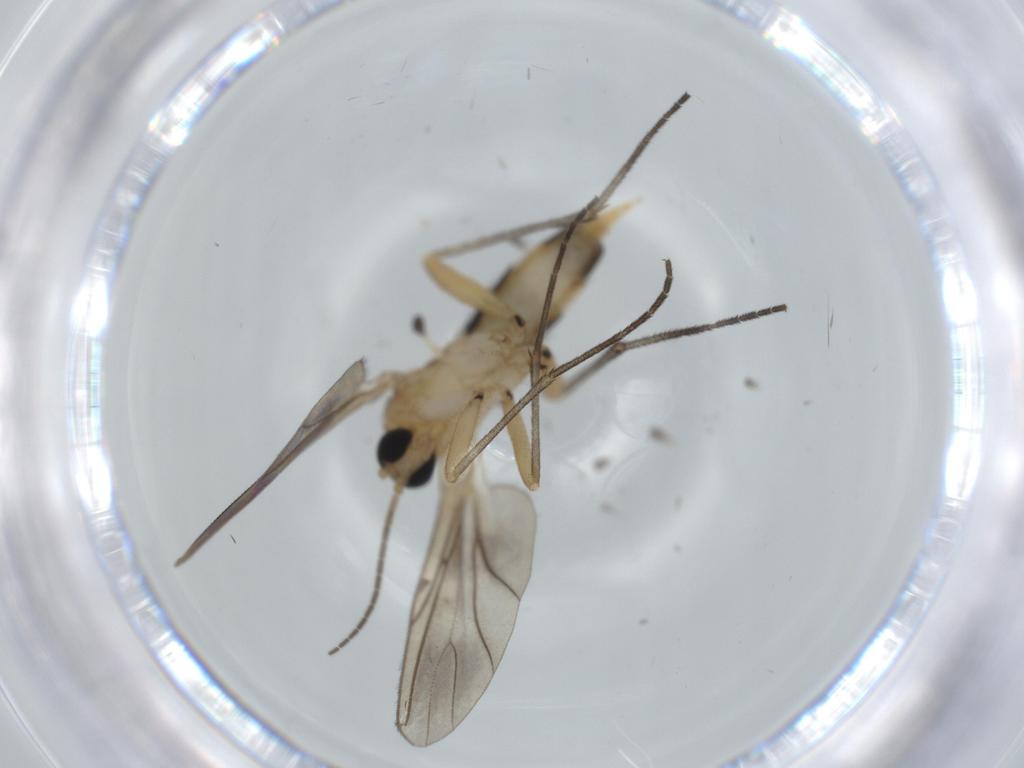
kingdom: Animalia
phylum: Arthropoda
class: Insecta
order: Diptera
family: Sciaridae
